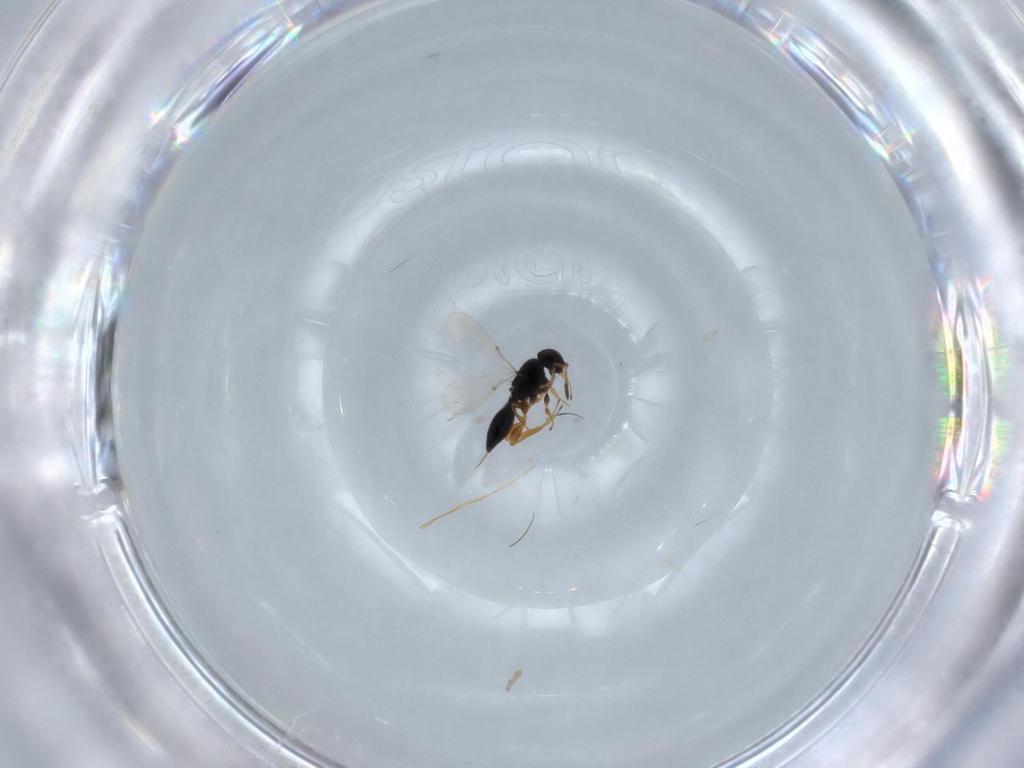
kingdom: Animalia
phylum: Arthropoda
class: Insecta
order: Hymenoptera
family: Platygastridae
